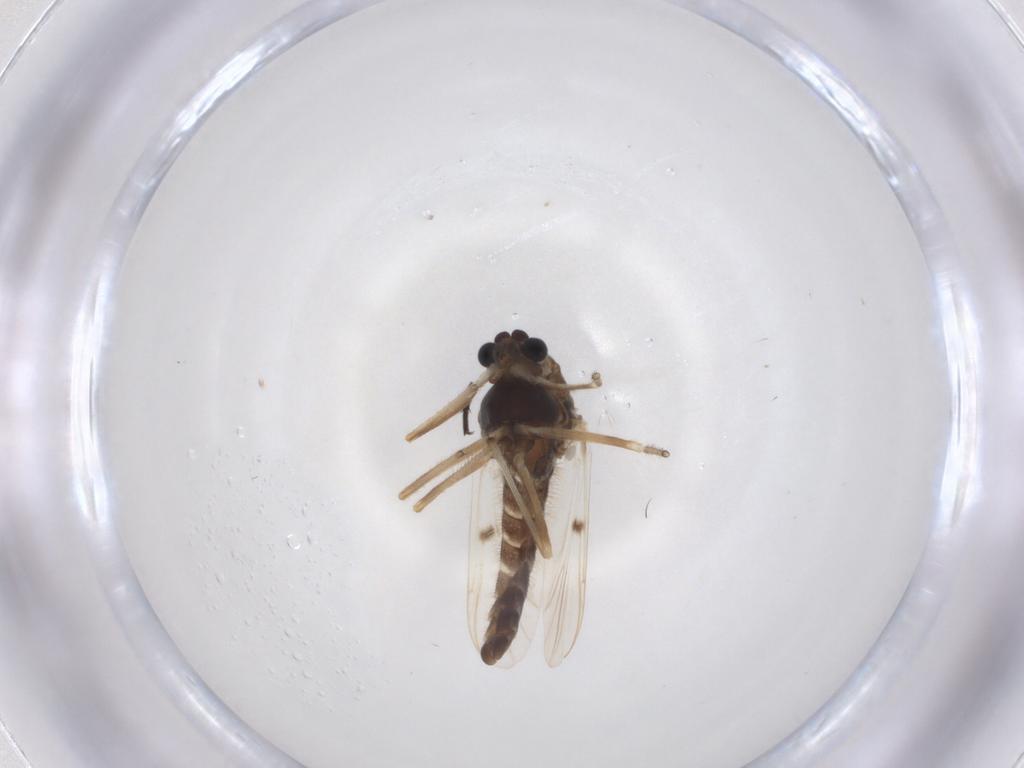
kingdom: Animalia
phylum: Arthropoda
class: Insecta
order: Diptera
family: Chironomidae
